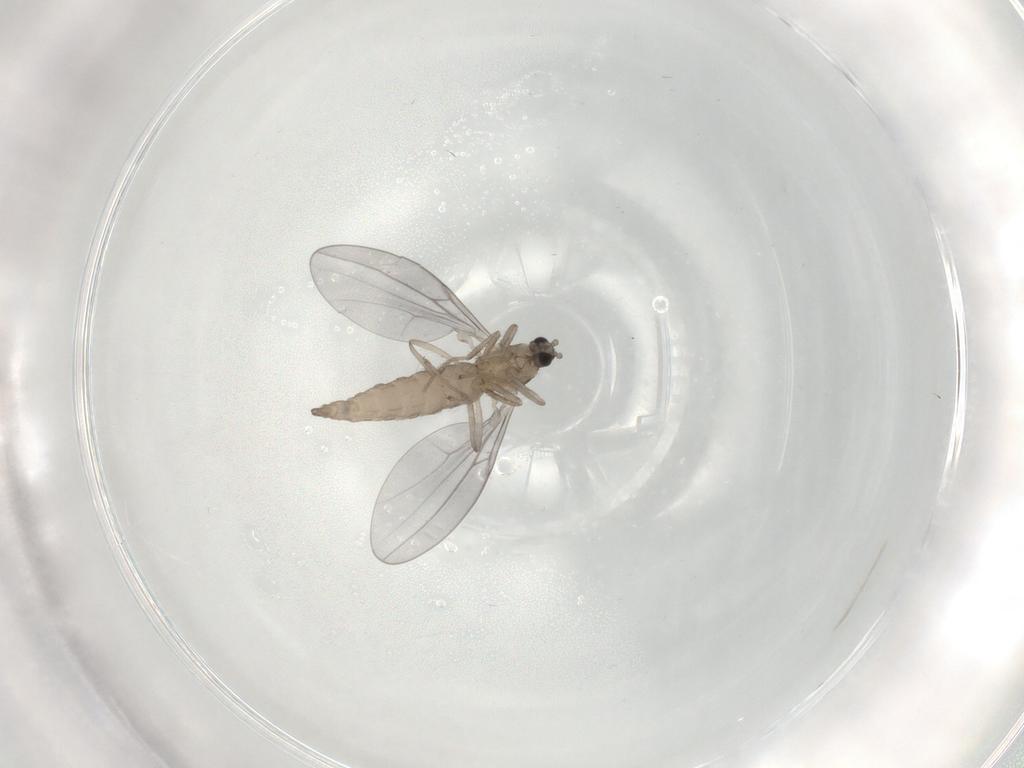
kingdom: Animalia
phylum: Arthropoda
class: Insecta
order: Diptera
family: Cecidomyiidae
